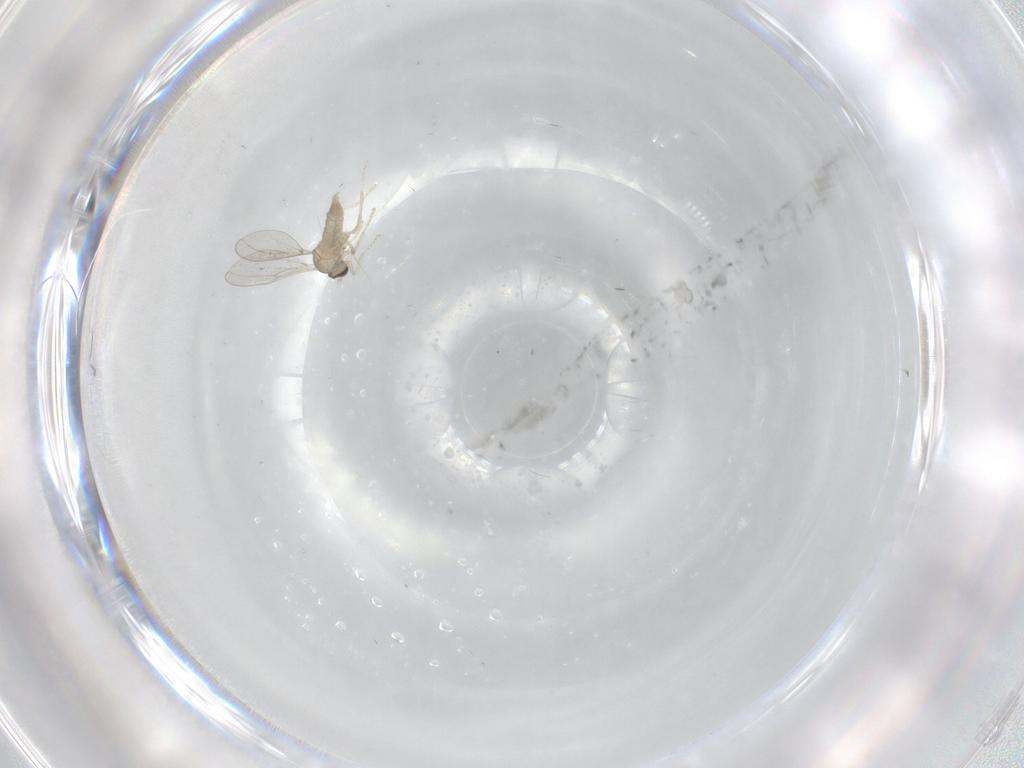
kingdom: Animalia
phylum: Arthropoda
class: Insecta
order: Diptera
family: Cecidomyiidae
